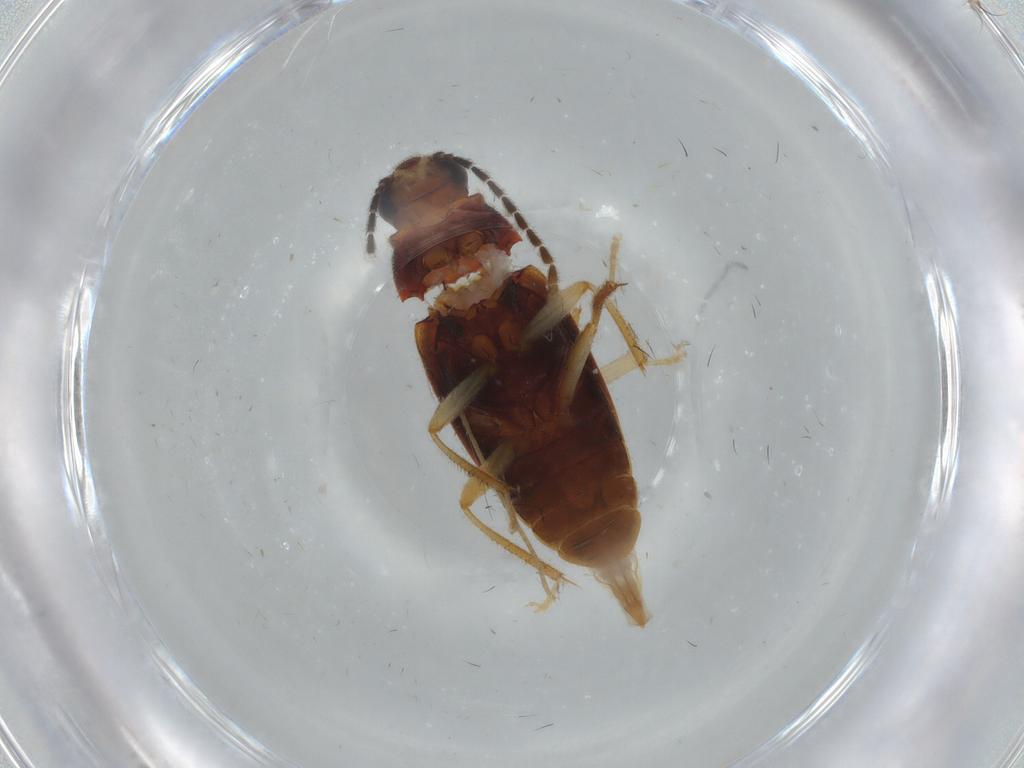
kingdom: Animalia
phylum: Arthropoda
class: Insecta
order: Coleoptera
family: Ptilodactylidae
